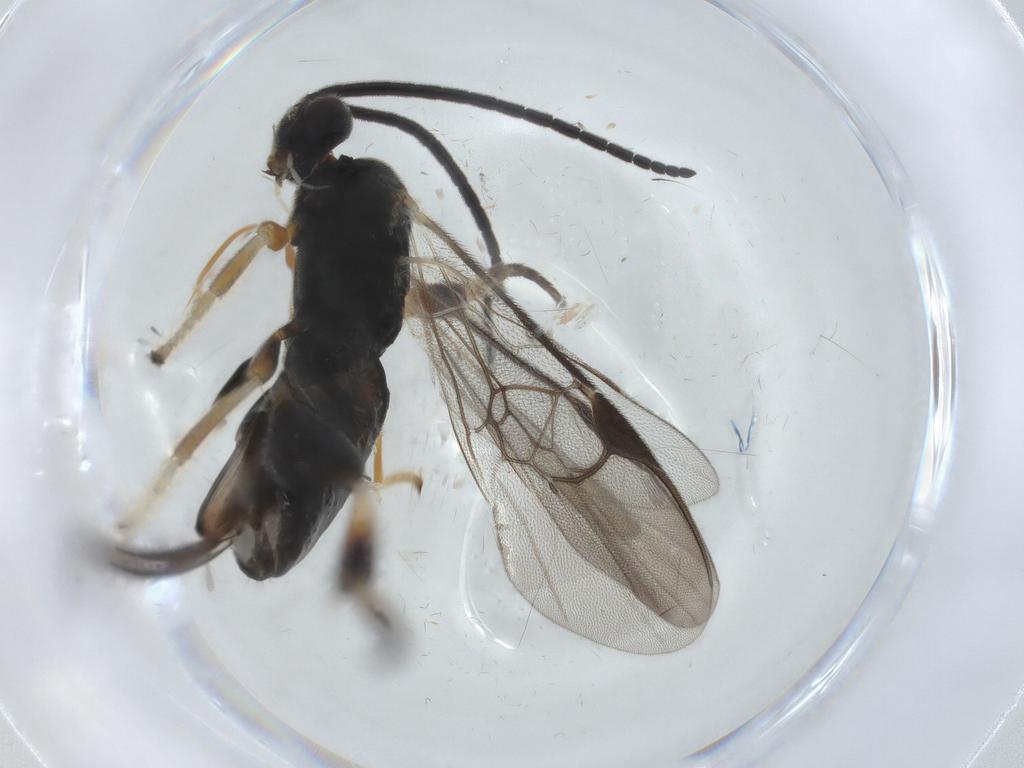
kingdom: Animalia
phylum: Arthropoda
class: Insecta
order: Hymenoptera
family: Braconidae
